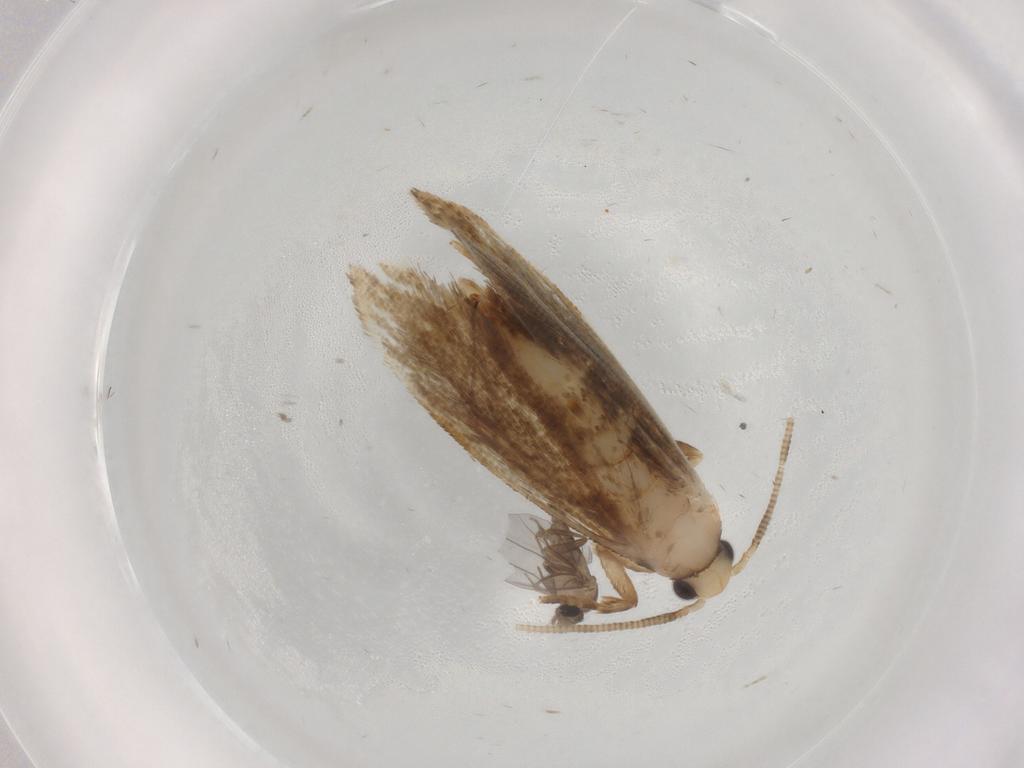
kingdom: Animalia
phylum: Arthropoda
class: Insecta
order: Lepidoptera
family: Tineidae
